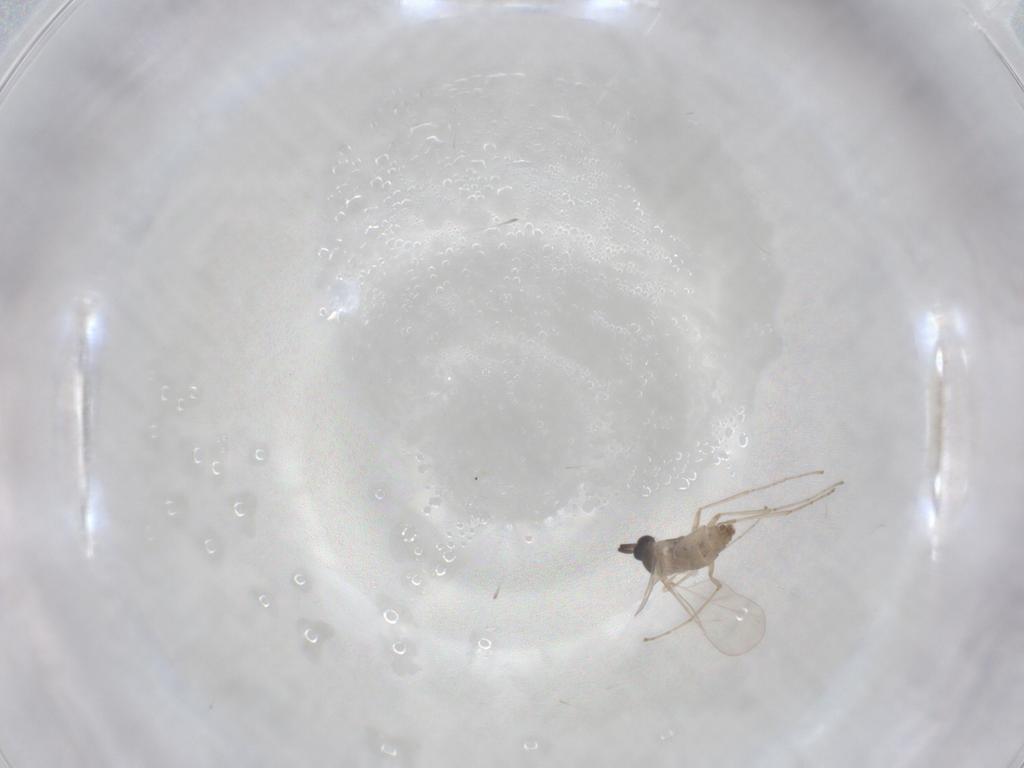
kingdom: Animalia
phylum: Arthropoda
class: Insecta
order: Diptera
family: Cecidomyiidae
